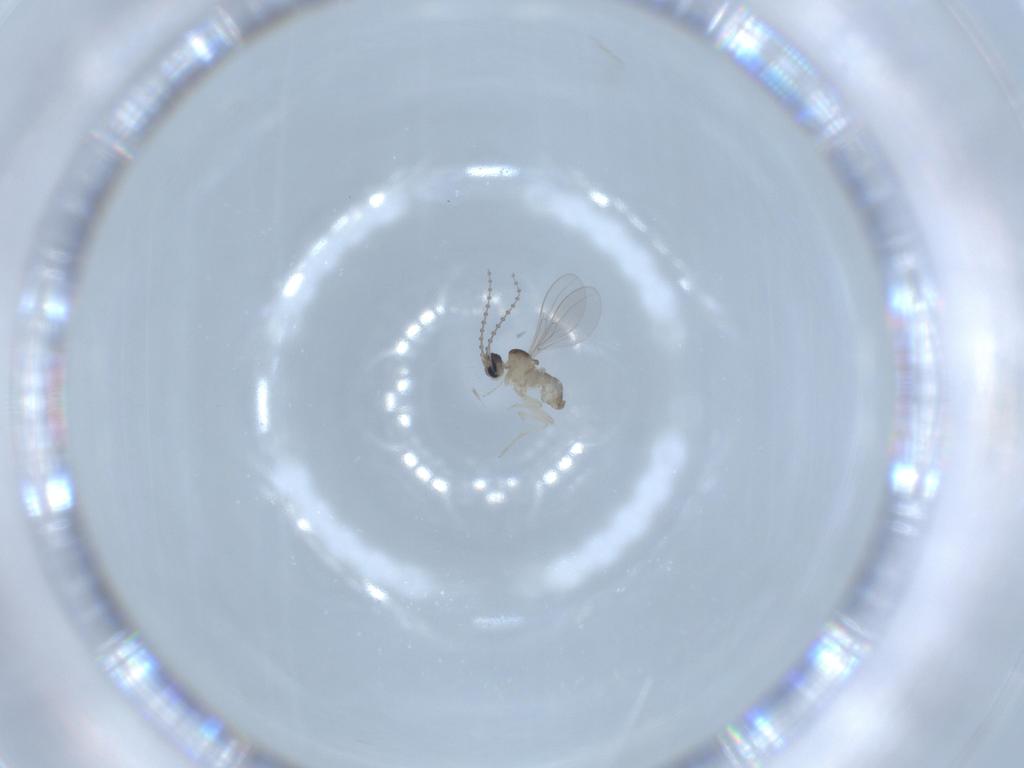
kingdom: Animalia
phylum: Arthropoda
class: Insecta
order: Diptera
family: Cecidomyiidae
